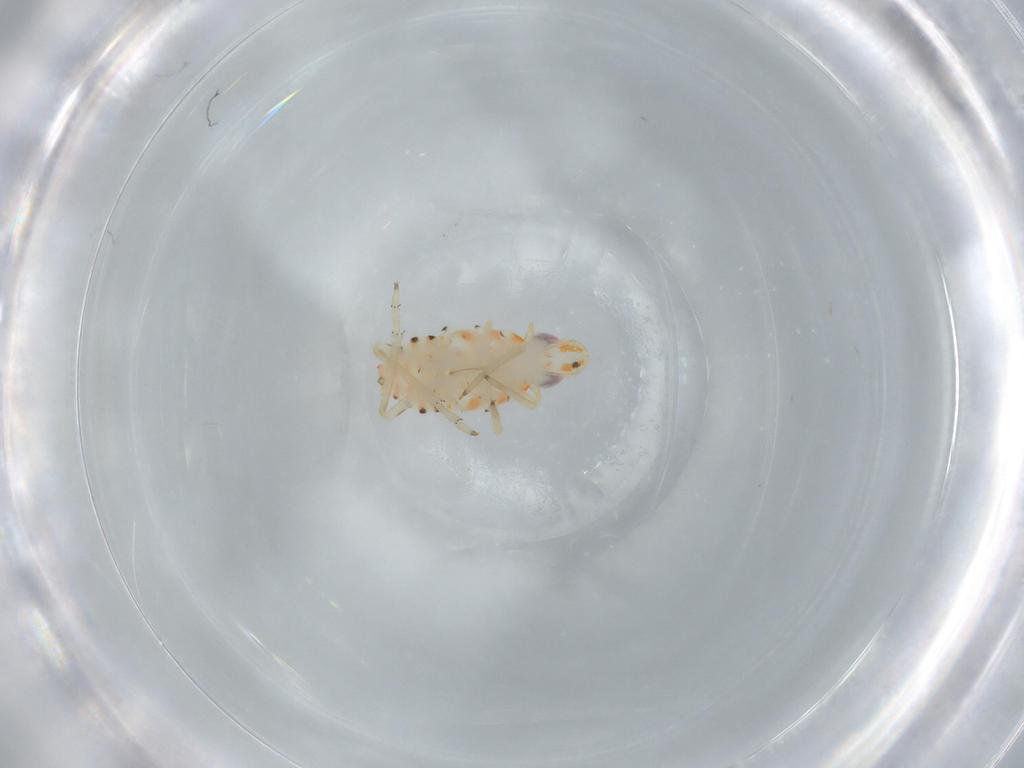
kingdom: Animalia
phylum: Arthropoda
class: Insecta
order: Hemiptera
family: Tropiduchidae
